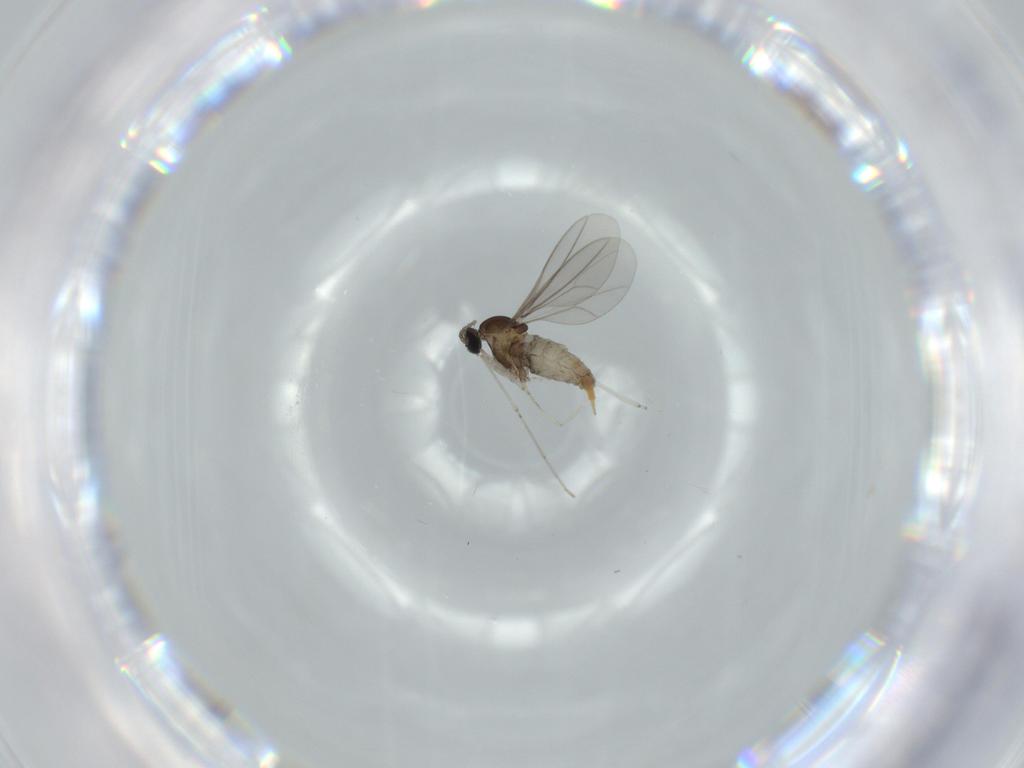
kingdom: Animalia
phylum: Arthropoda
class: Insecta
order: Diptera
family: Cecidomyiidae
